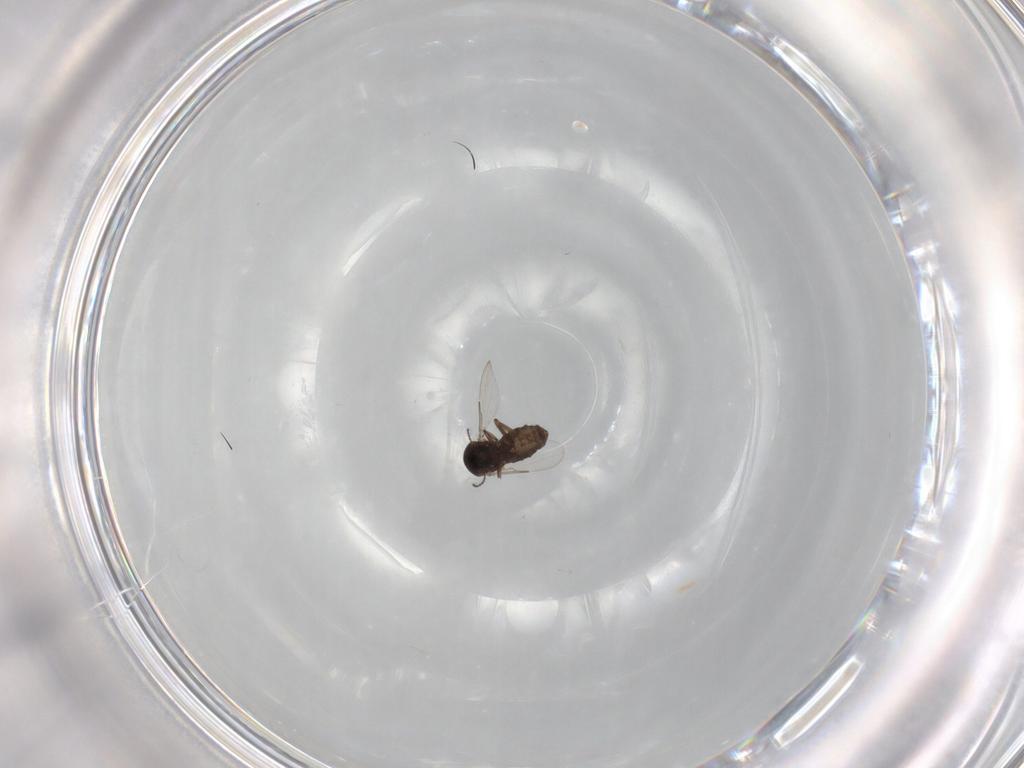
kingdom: Animalia
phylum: Arthropoda
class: Insecta
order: Diptera
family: Ceratopogonidae
